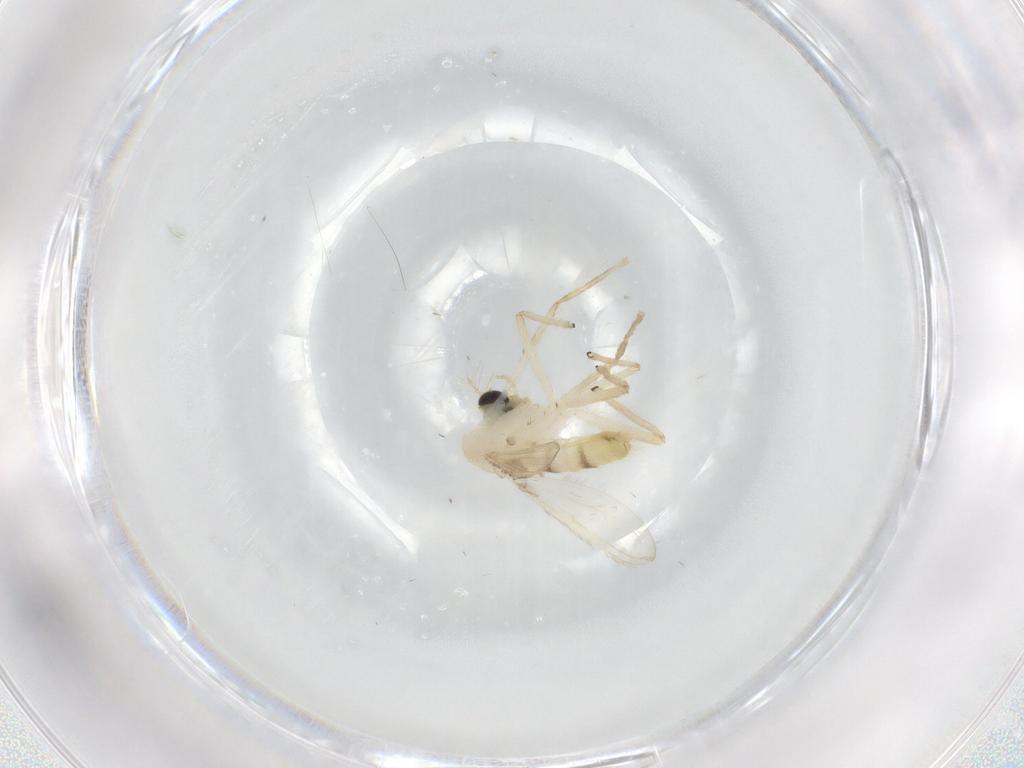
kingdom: Animalia
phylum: Arthropoda
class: Insecta
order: Diptera
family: Chironomidae
